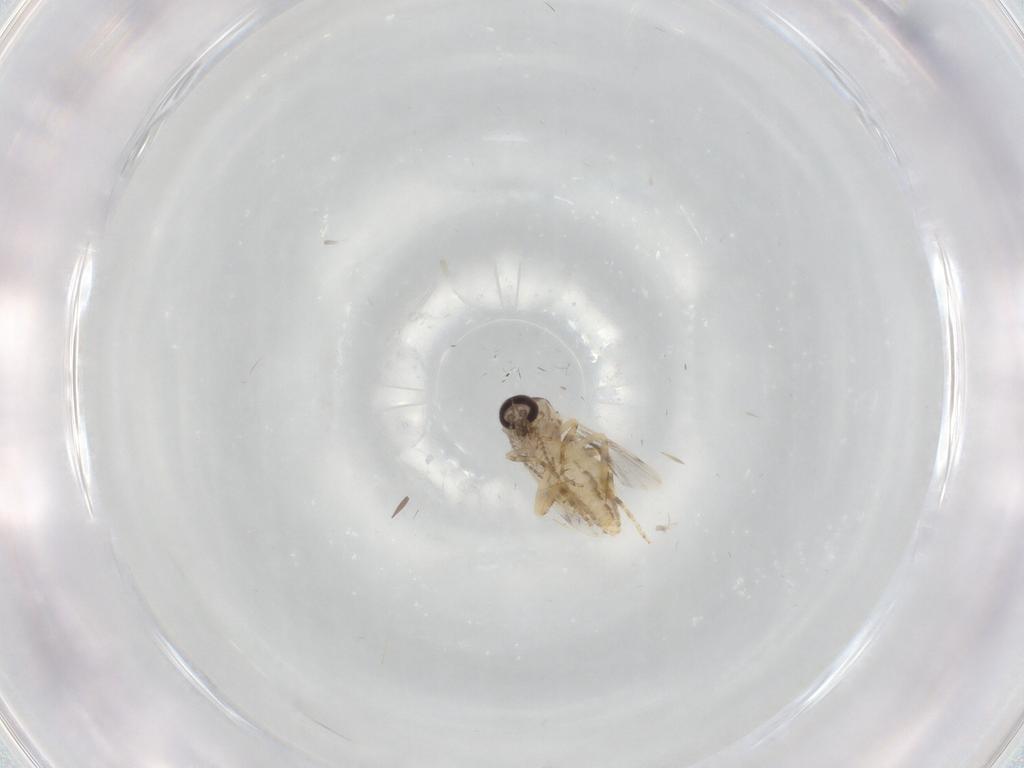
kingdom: Animalia
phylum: Arthropoda
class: Insecta
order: Diptera
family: Ceratopogonidae
